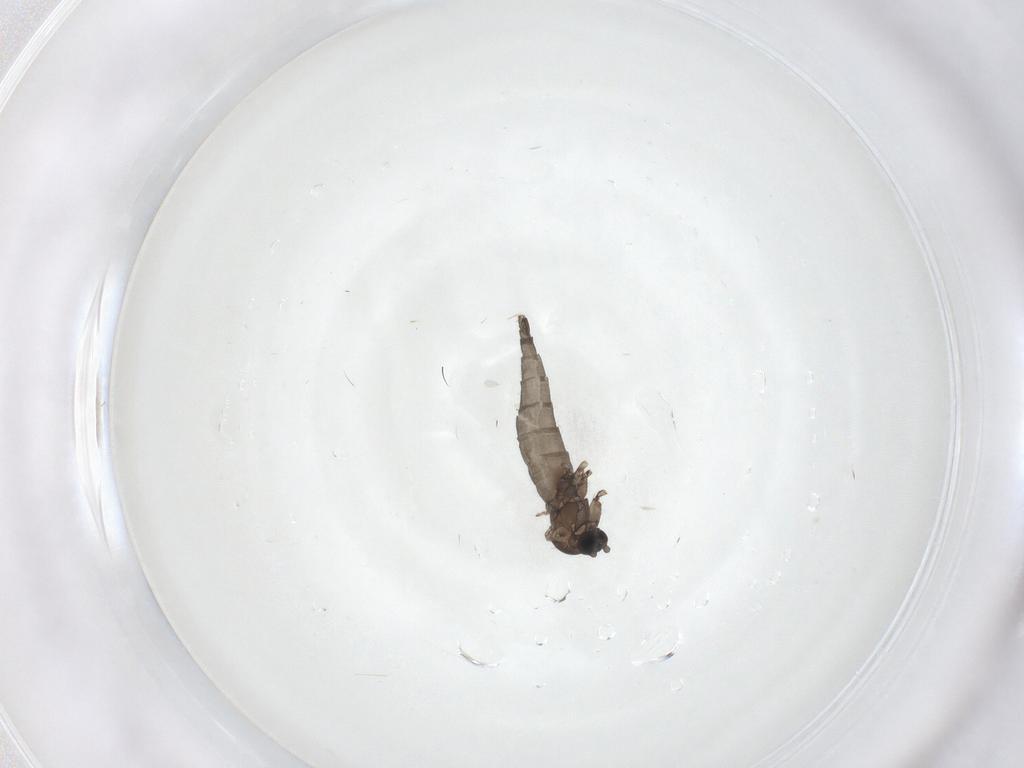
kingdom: Animalia
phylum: Arthropoda
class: Insecta
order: Diptera
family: Sciaridae
